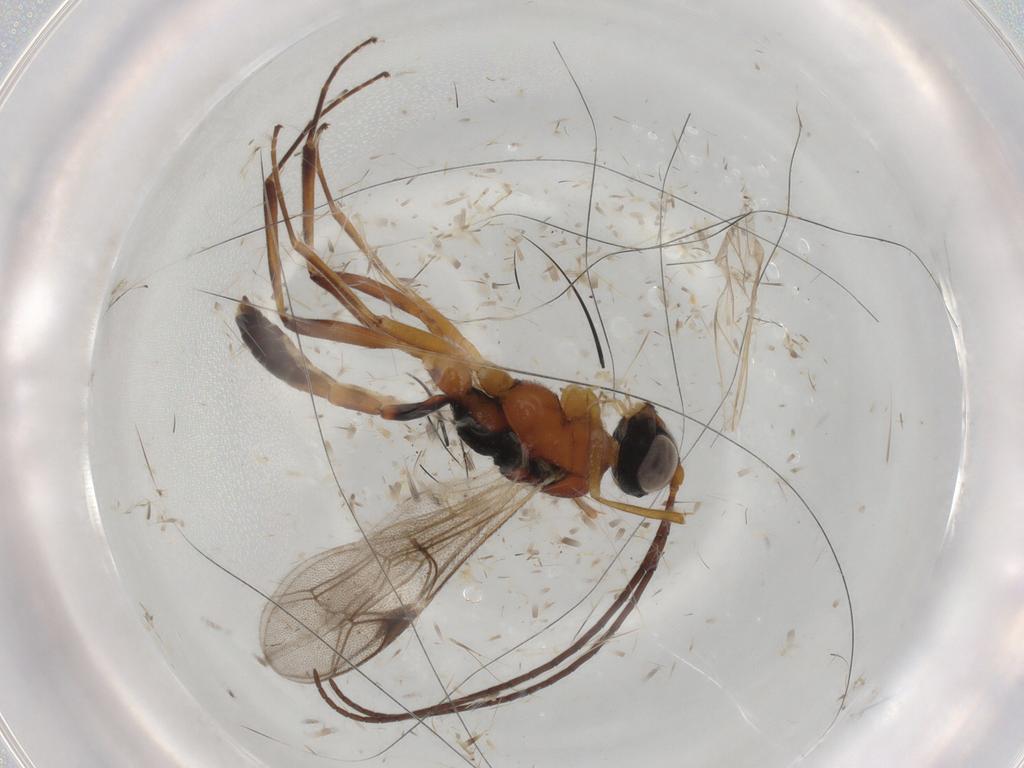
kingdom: Animalia
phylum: Arthropoda
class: Insecta
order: Hymenoptera
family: Ichneumonidae
